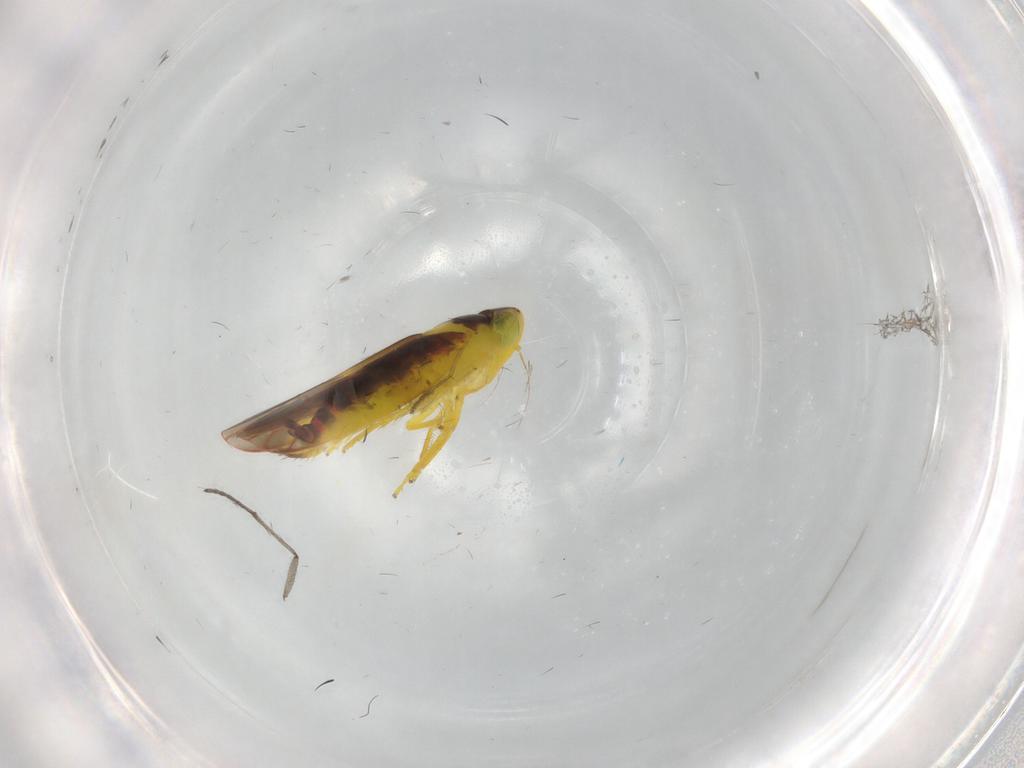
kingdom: Animalia
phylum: Arthropoda
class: Insecta
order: Hemiptera
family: Cicadellidae
